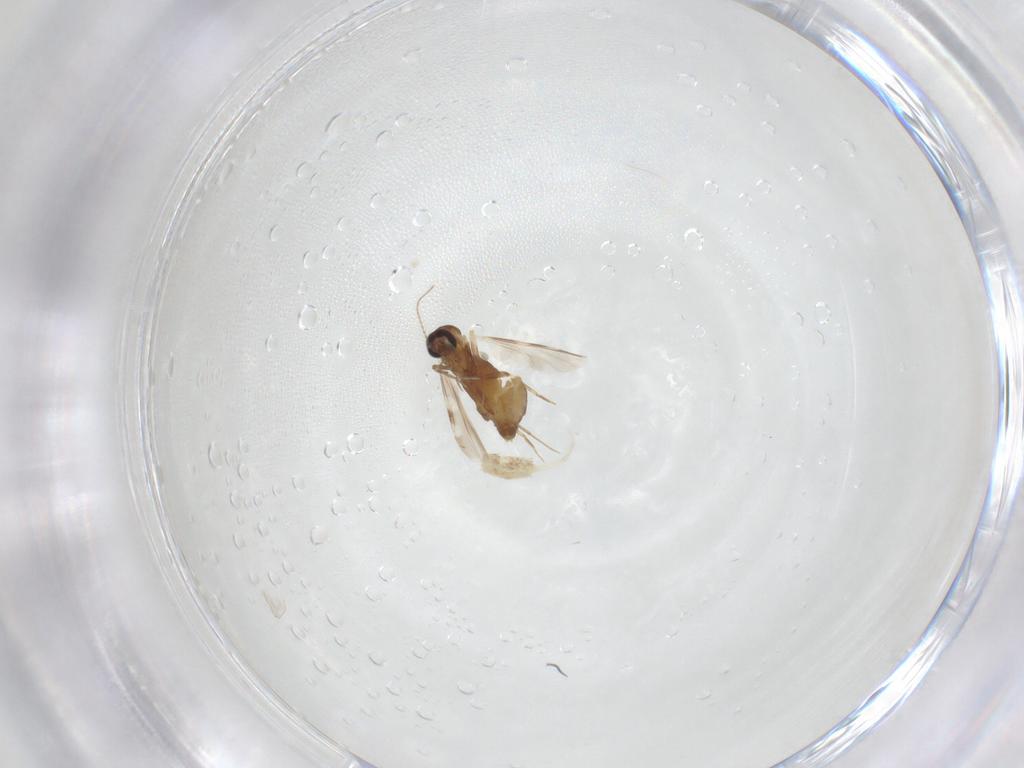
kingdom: Animalia
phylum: Arthropoda
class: Insecta
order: Diptera
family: Ceratopogonidae
